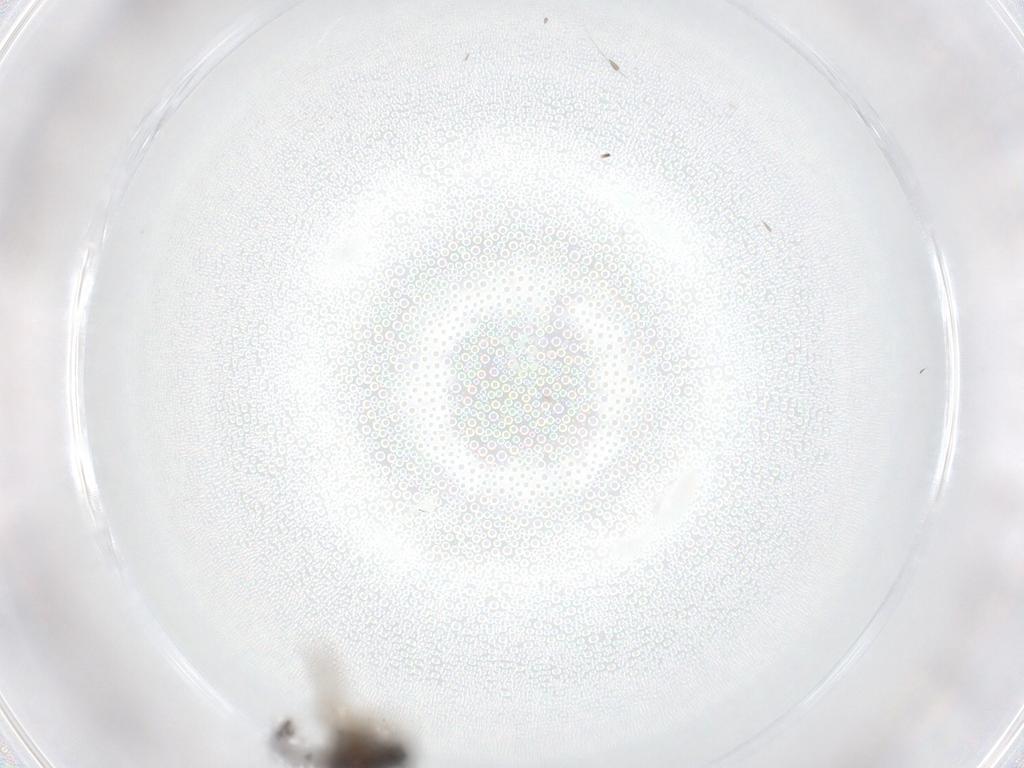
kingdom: Animalia
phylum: Arthropoda
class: Insecta
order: Diptera
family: Ceratopogonidae
